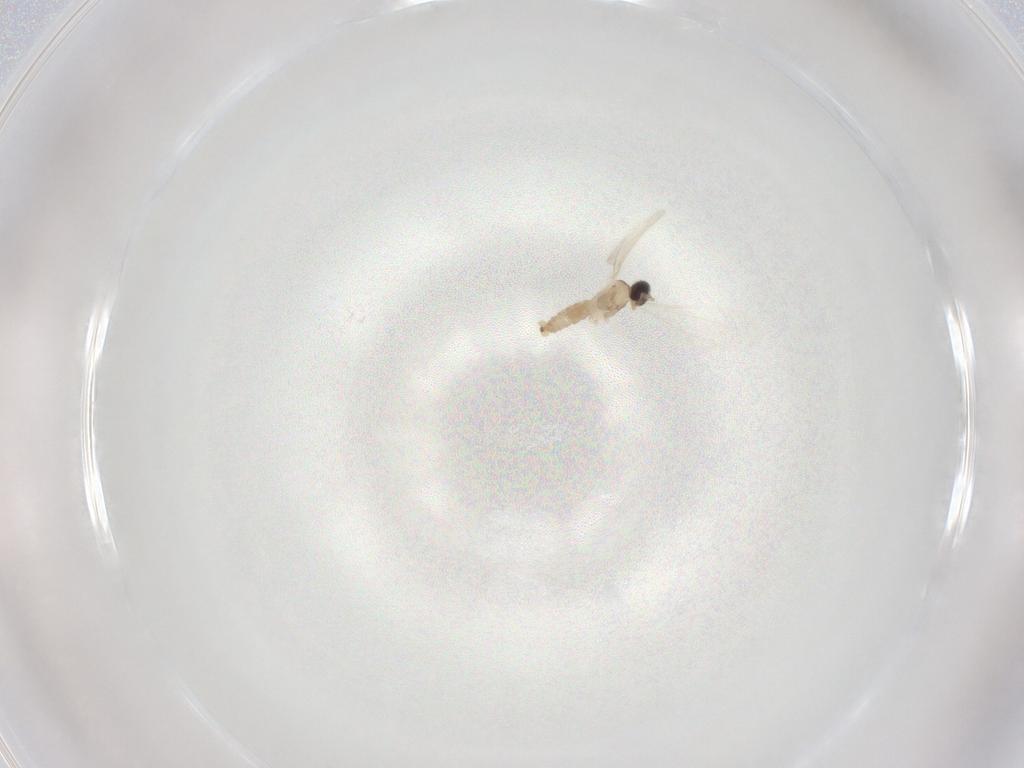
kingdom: Animalia
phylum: Arthropoda
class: Insecta
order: Diptera
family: Cecidomyiidae
